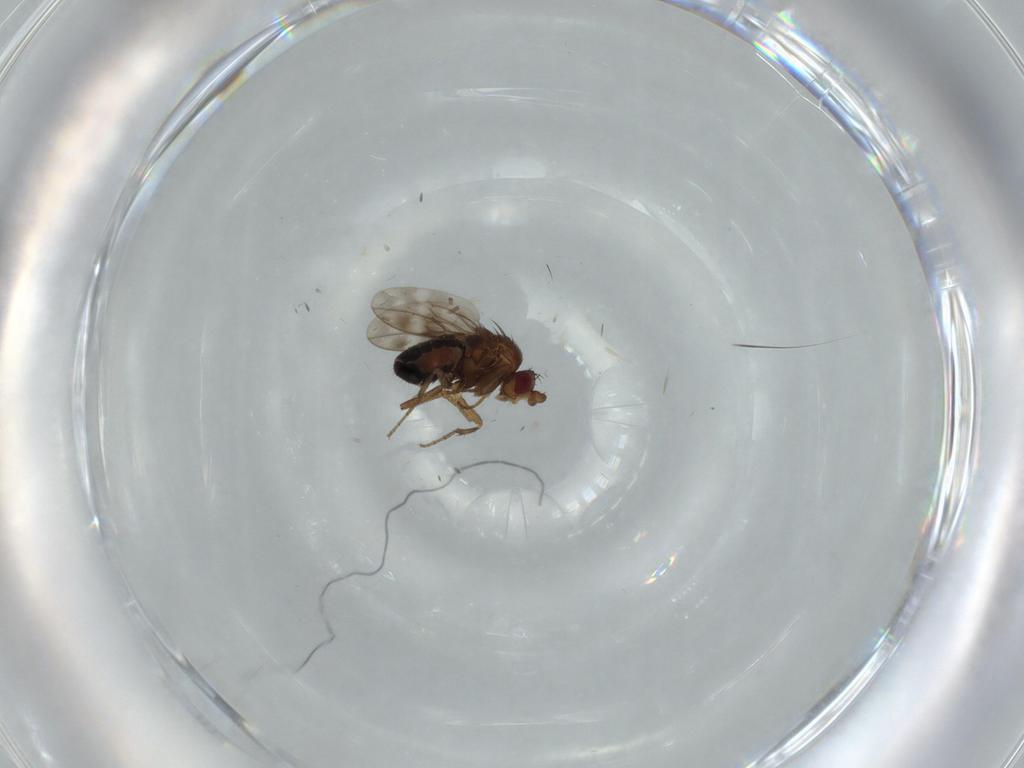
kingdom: Animalia
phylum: Arthropoda
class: Insecta
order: Diptera
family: Sphaeroceridae
